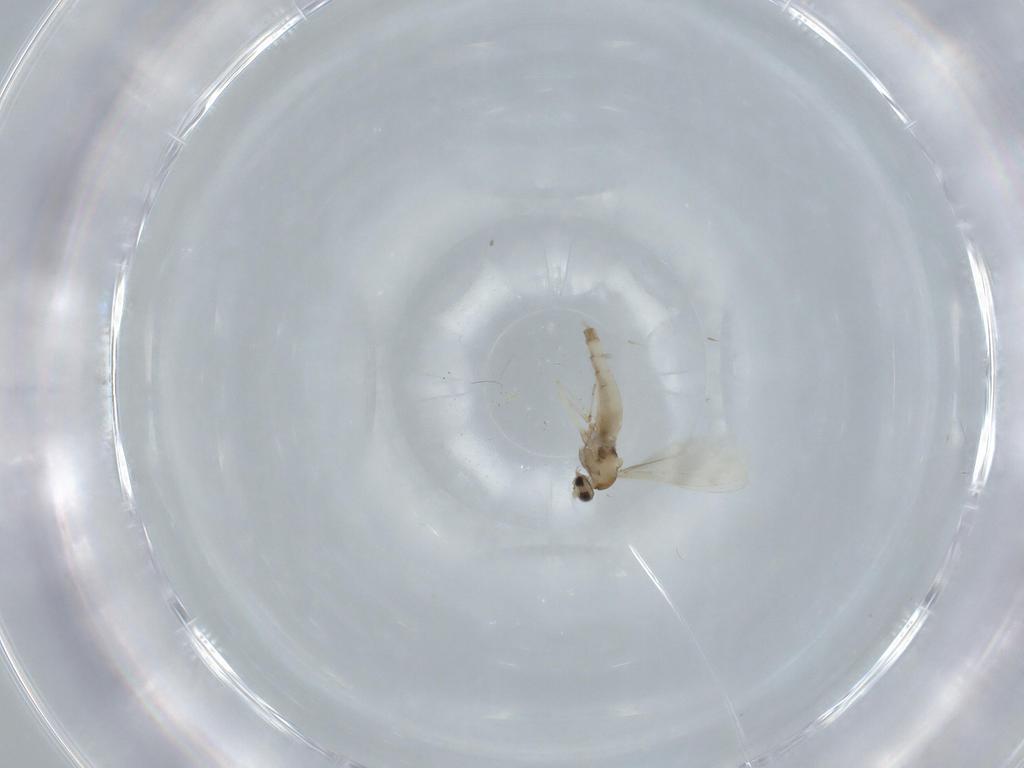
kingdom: Animalia
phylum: Arthropoda
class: Insecta
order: Diptera
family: Cecidomyiidae
